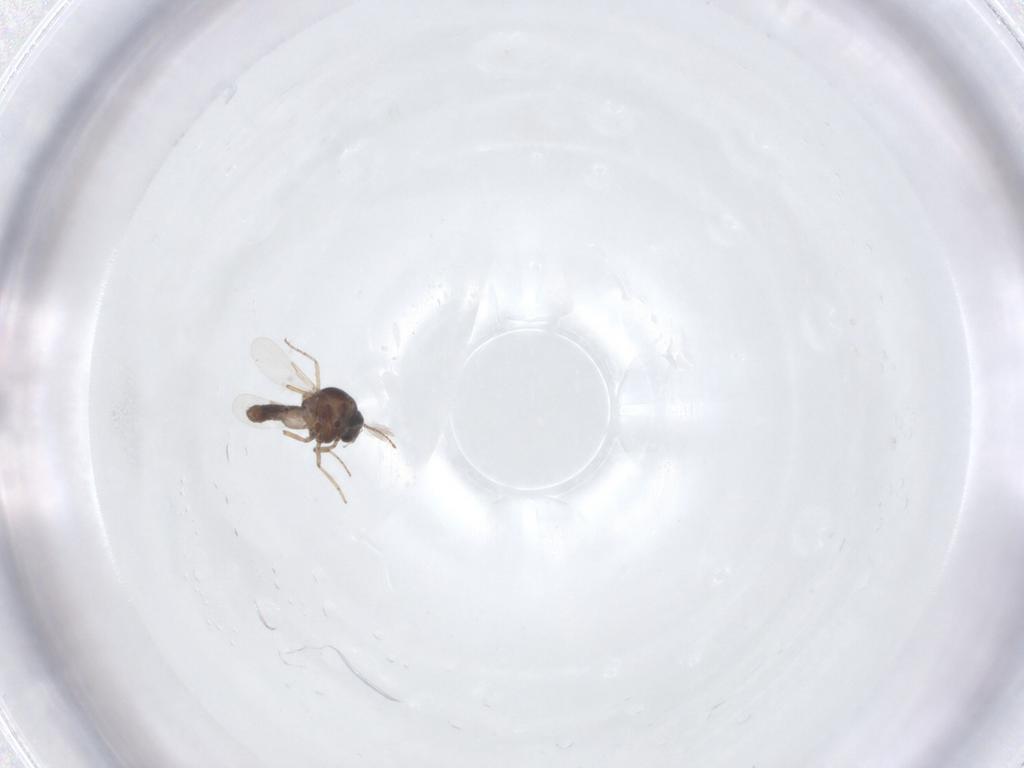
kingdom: Animalia
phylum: Arthropoda
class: Insecta
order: Diptera
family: Ceratopogonidae
